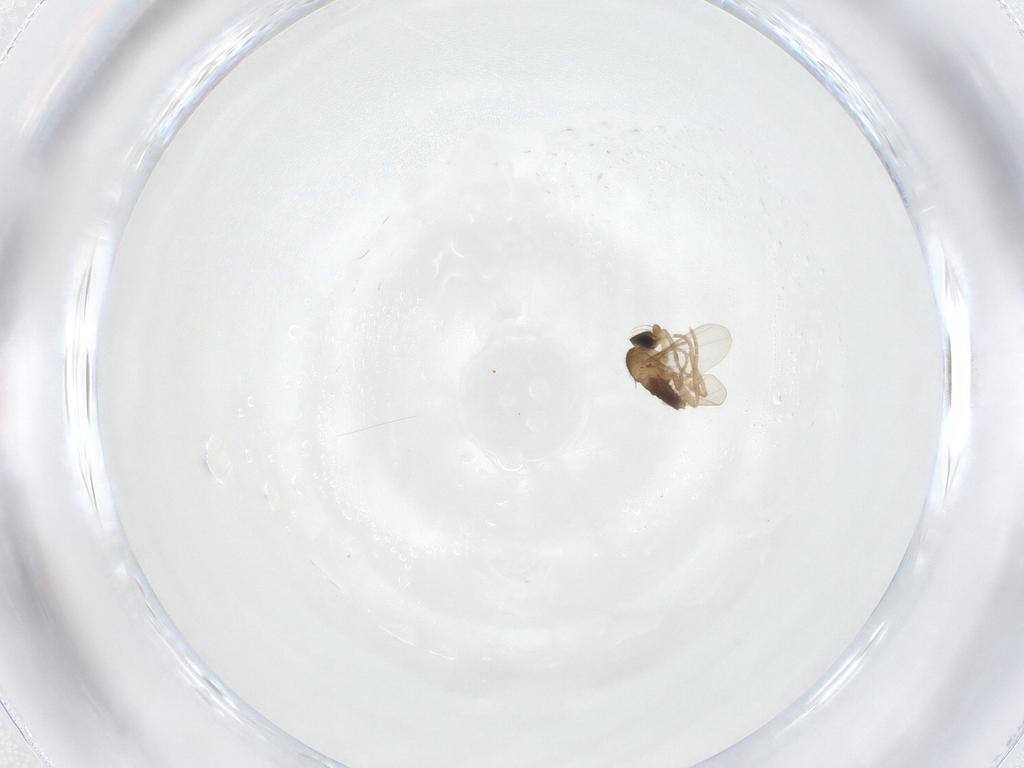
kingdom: Animalia
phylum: Arthropoda
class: Insecta
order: Diptera
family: Phoridae
